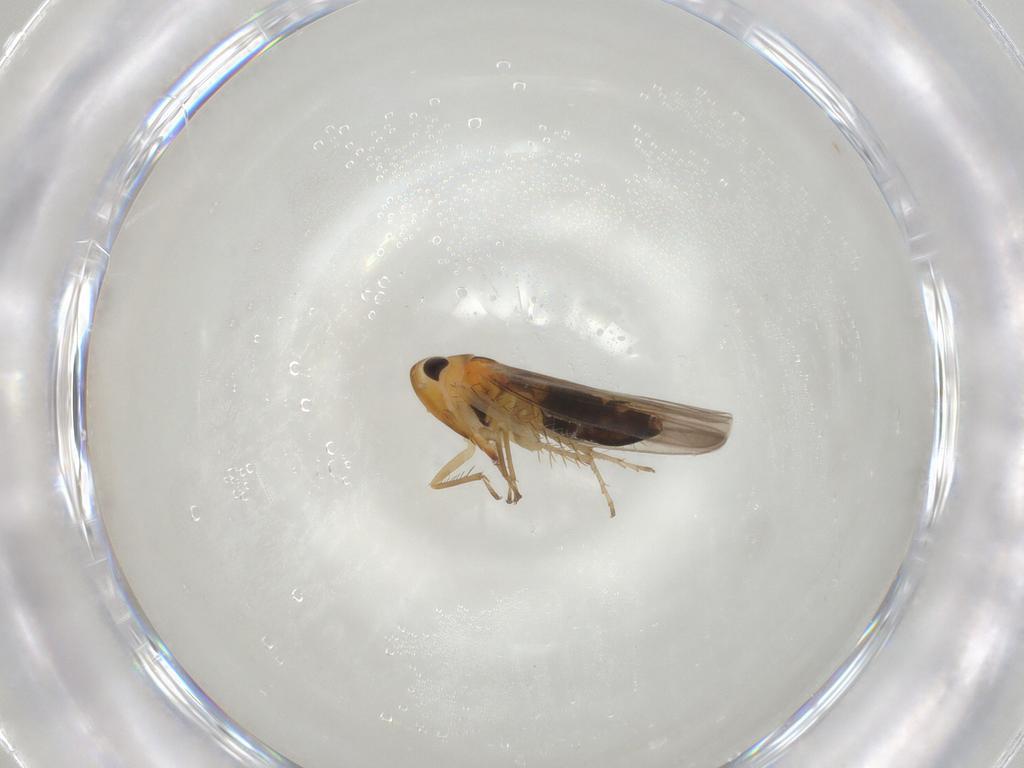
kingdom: Animalia
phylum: Arthropoda
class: Insecta
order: Hemiptera
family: Cicadellidae
